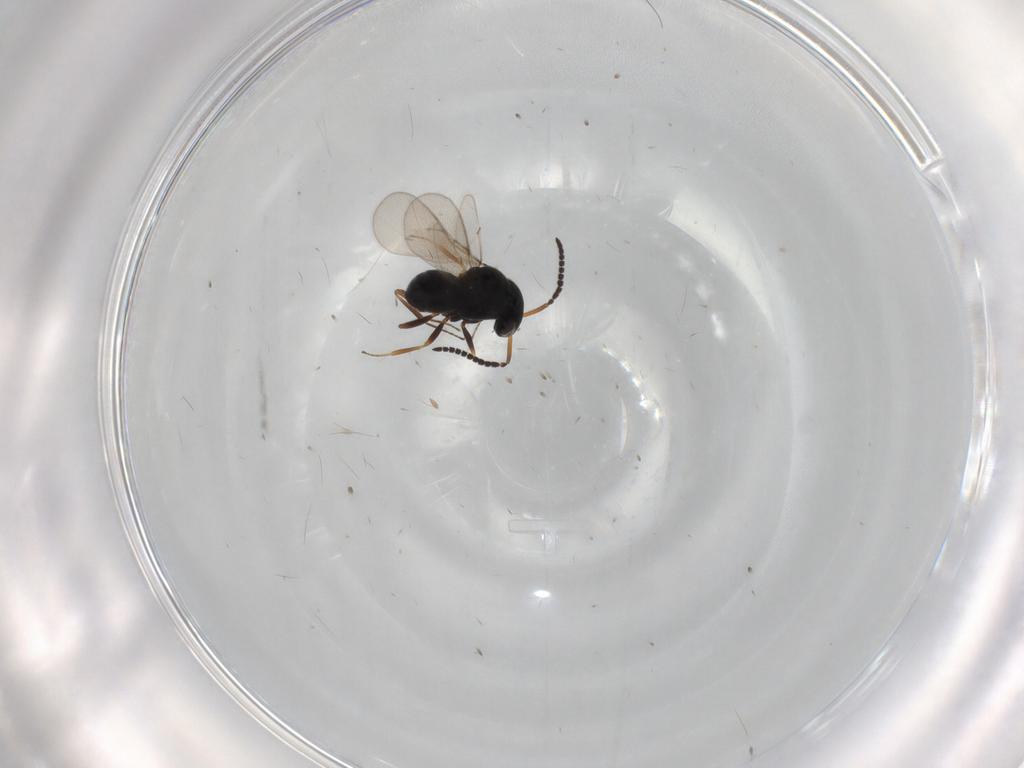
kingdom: Animalia
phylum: Arthropoda
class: Insecta
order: Hymenoptera
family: Scelionidae
